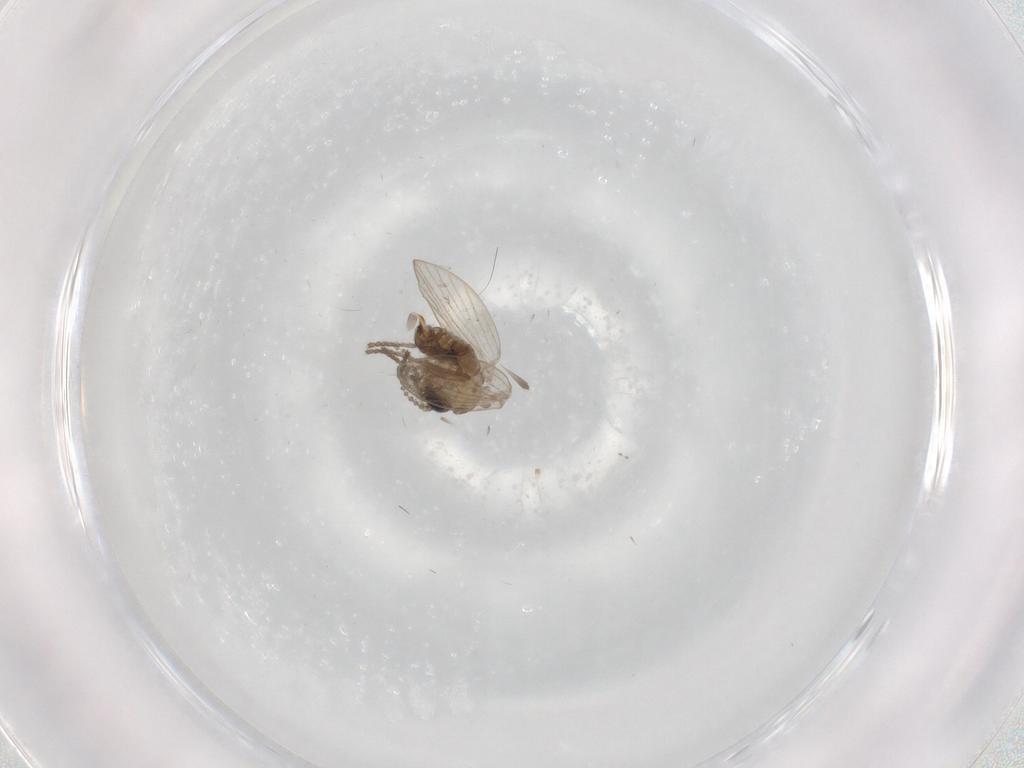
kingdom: Animalia
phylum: Arthropoda
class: Insecta
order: Diptera
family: Psychodidae
